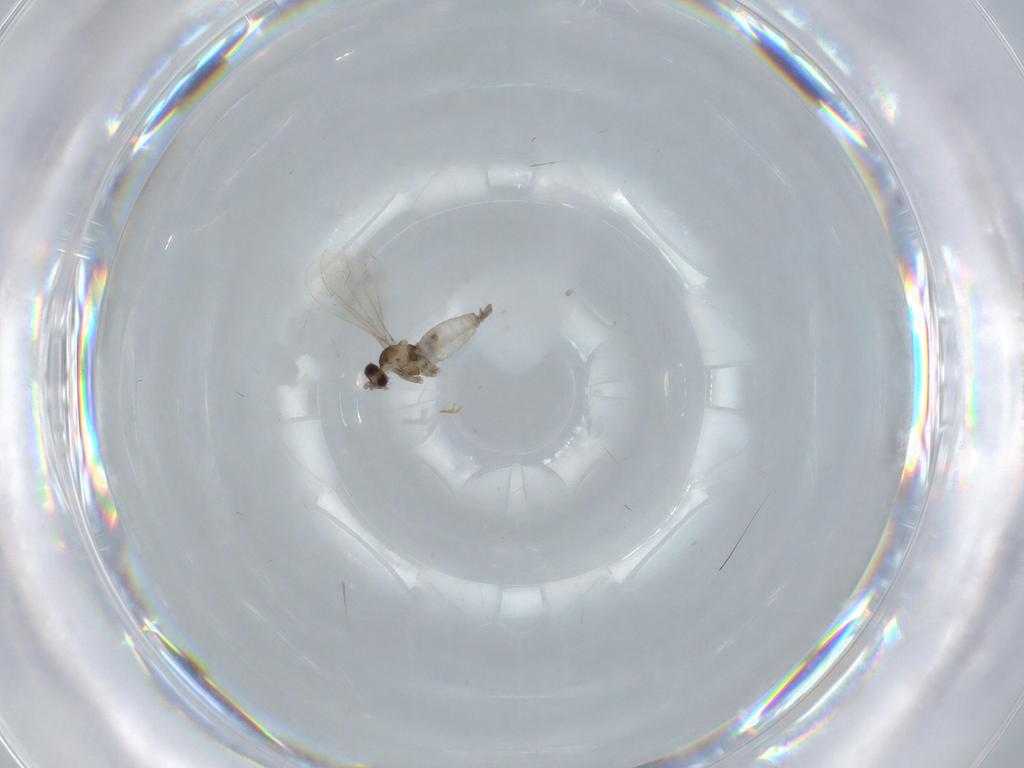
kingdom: Animalia
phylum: Arthropoda
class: Insecta
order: Diptera
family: Cecidomyiidae
